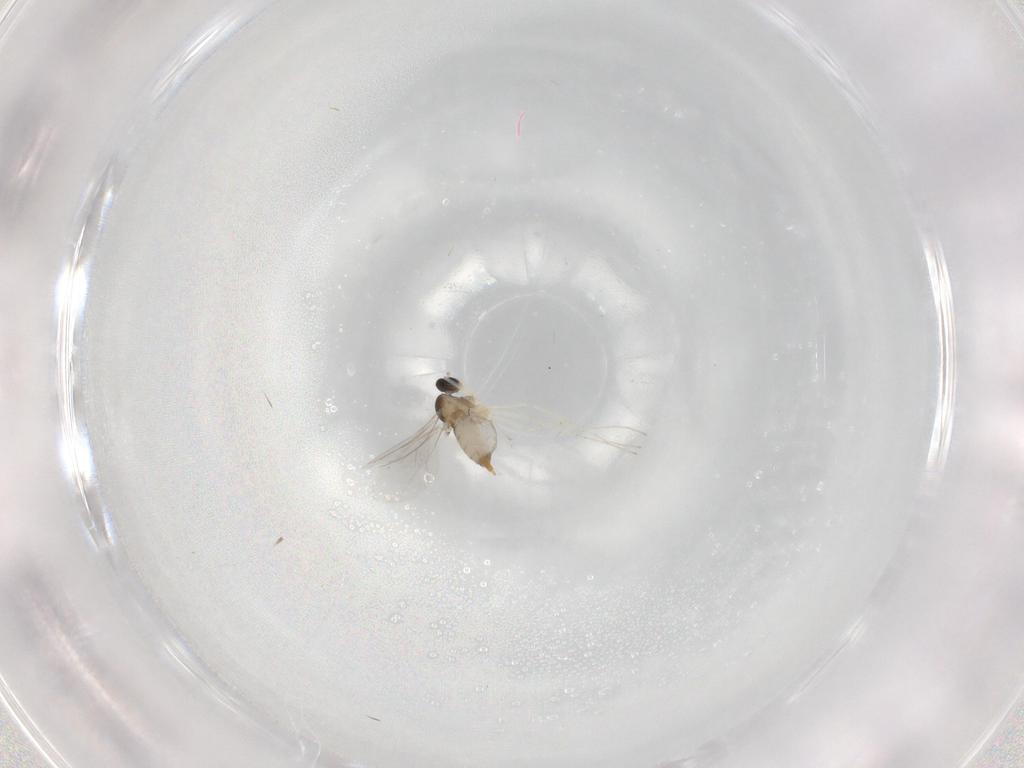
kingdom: Animalia
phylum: Arthropoda
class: Insecta
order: Diptera
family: Cecidomyiidae
